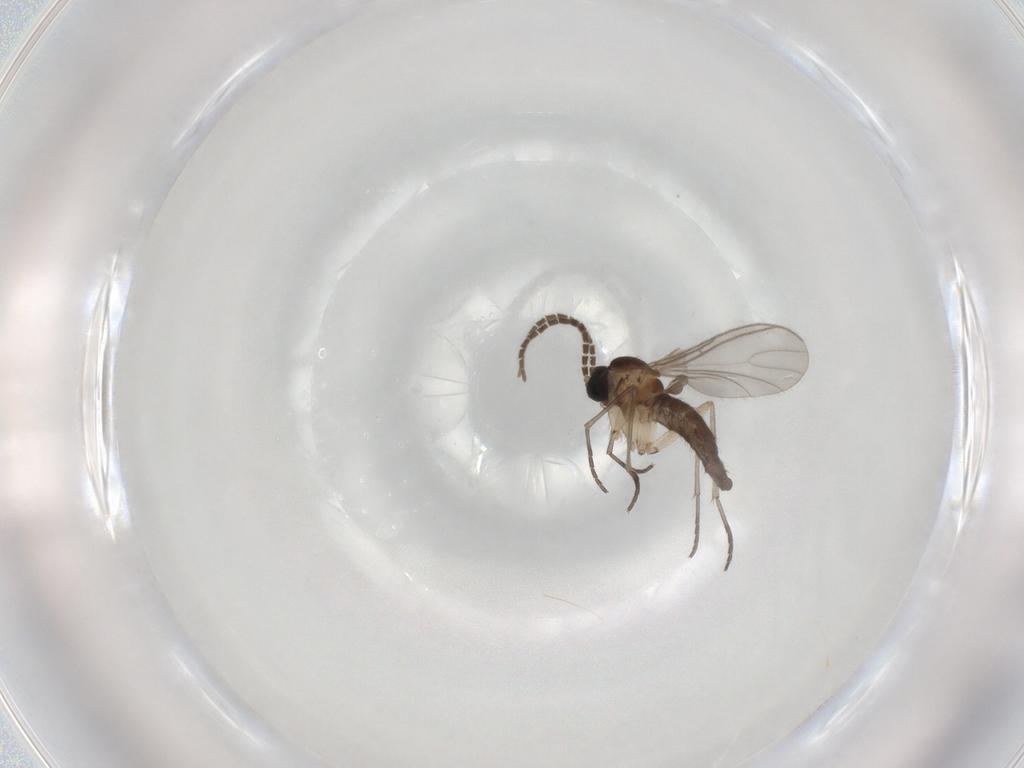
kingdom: Animalia
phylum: Arthropoda
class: Insecta
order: Diptera
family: Sciaridae
